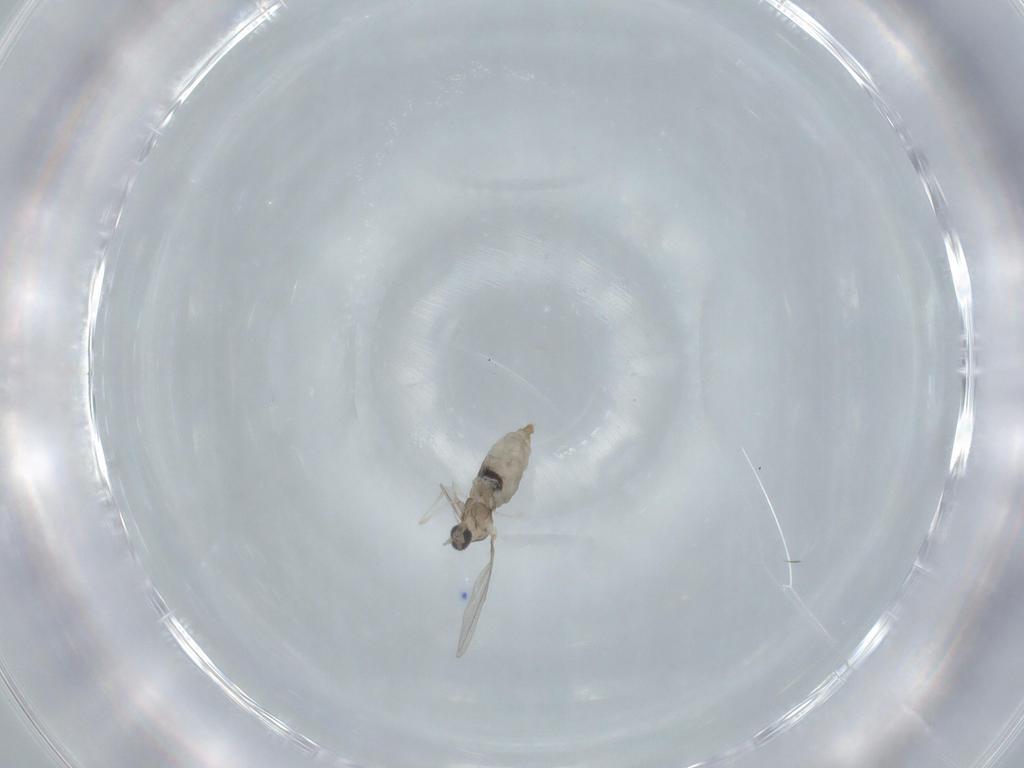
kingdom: Animalia
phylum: Arthropoda
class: Insecta
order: Diptera
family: Cecidomyiidae
